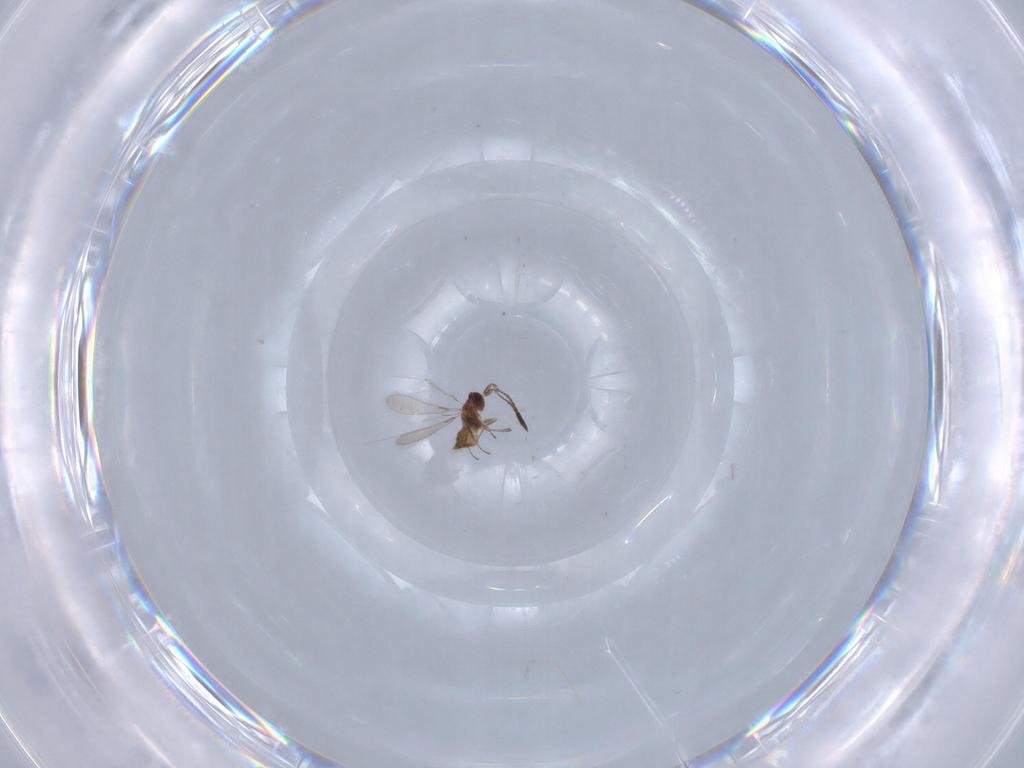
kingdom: Animalia
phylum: Arthropoda
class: Insecta
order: Hymenoptera
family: Mymaridae
